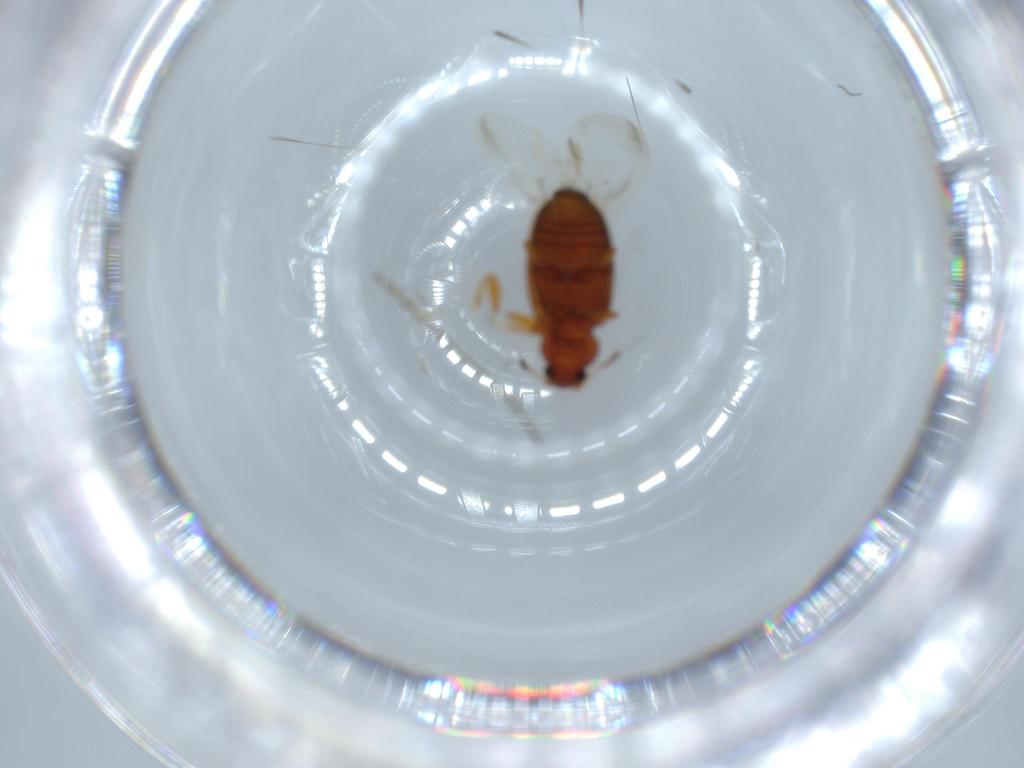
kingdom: Animalia
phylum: Arthropoda
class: Insecta
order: Coleoptera
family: Latridiidae
